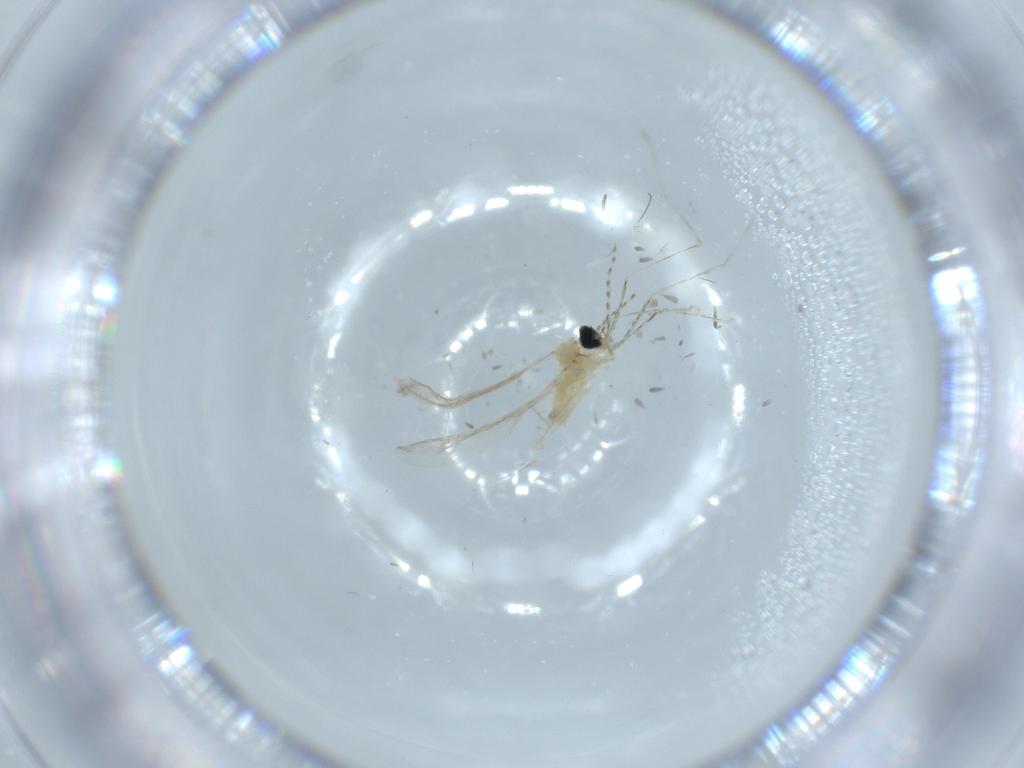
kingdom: Animalia
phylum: Arthropoda
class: Insecta
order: Diptera
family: Cecidomyiidae
